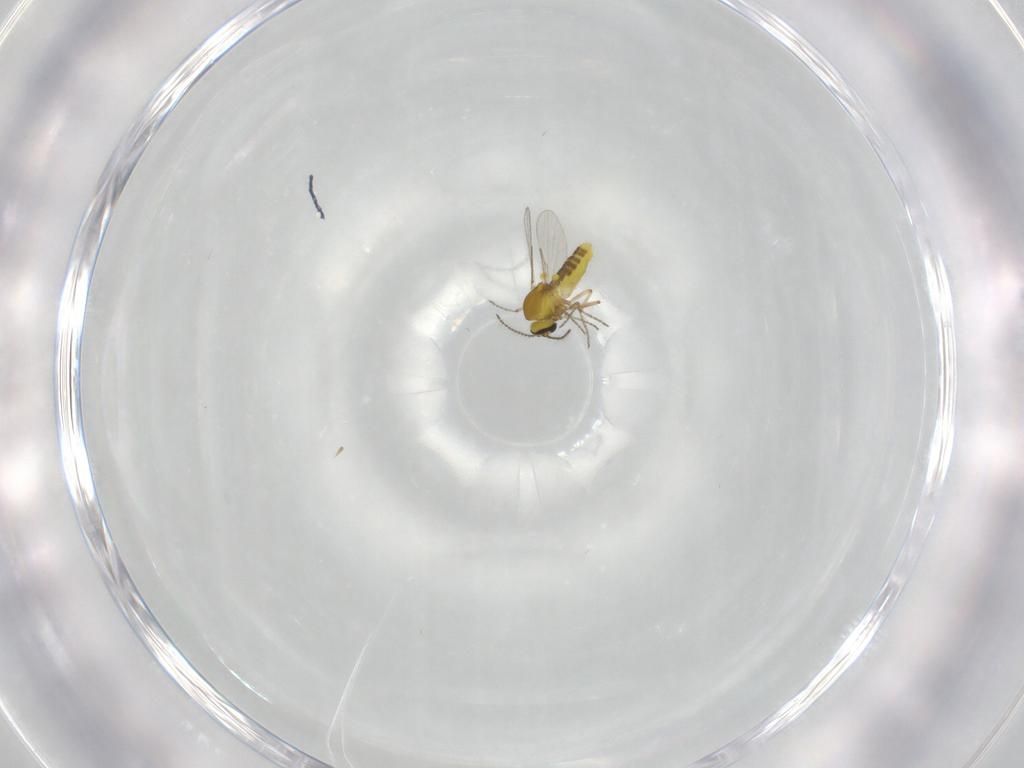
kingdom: Animalia
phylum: Arthropoda
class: Insecta
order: Diptera
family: Ceratopogonidae
